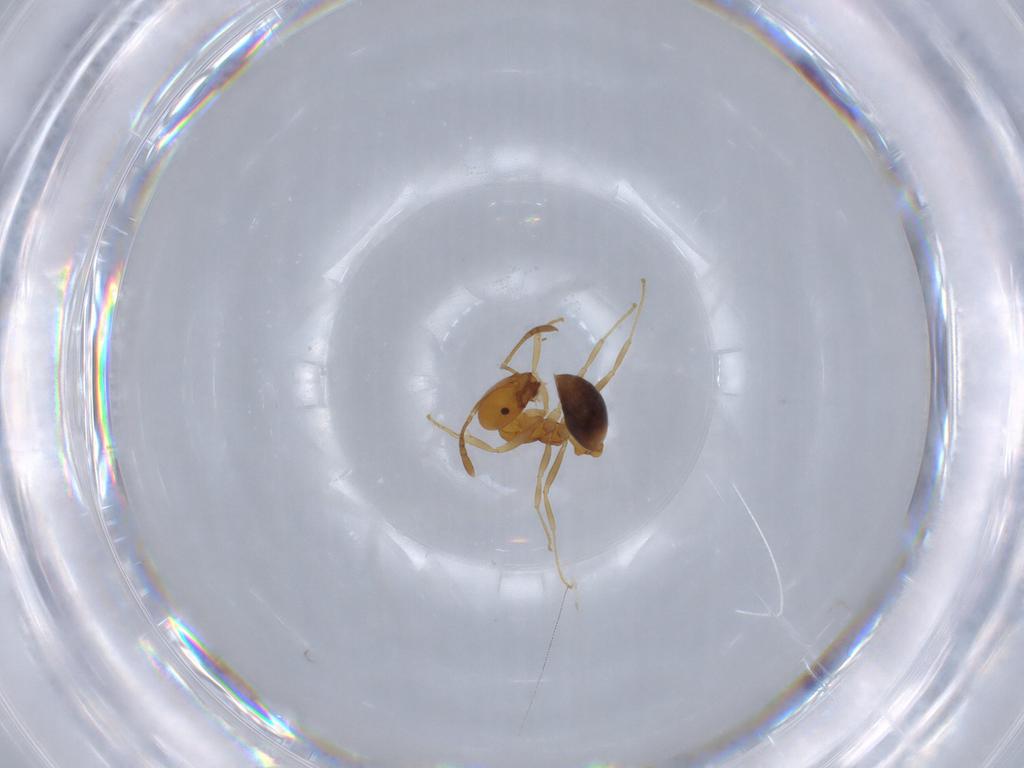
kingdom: Animalia
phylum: Arthropoda
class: Insecta
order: Hymenoptera
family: Formicidae
